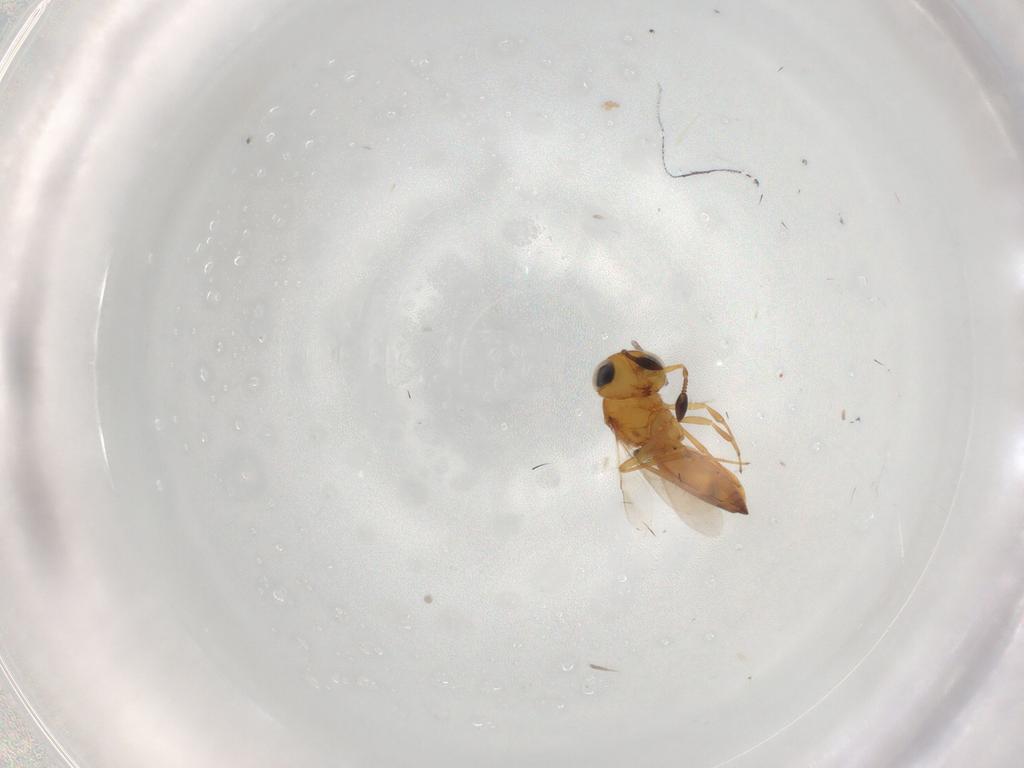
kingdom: Animalia
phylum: Arthropoda
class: Insecta
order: Hymenoptera
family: Scelionidae
